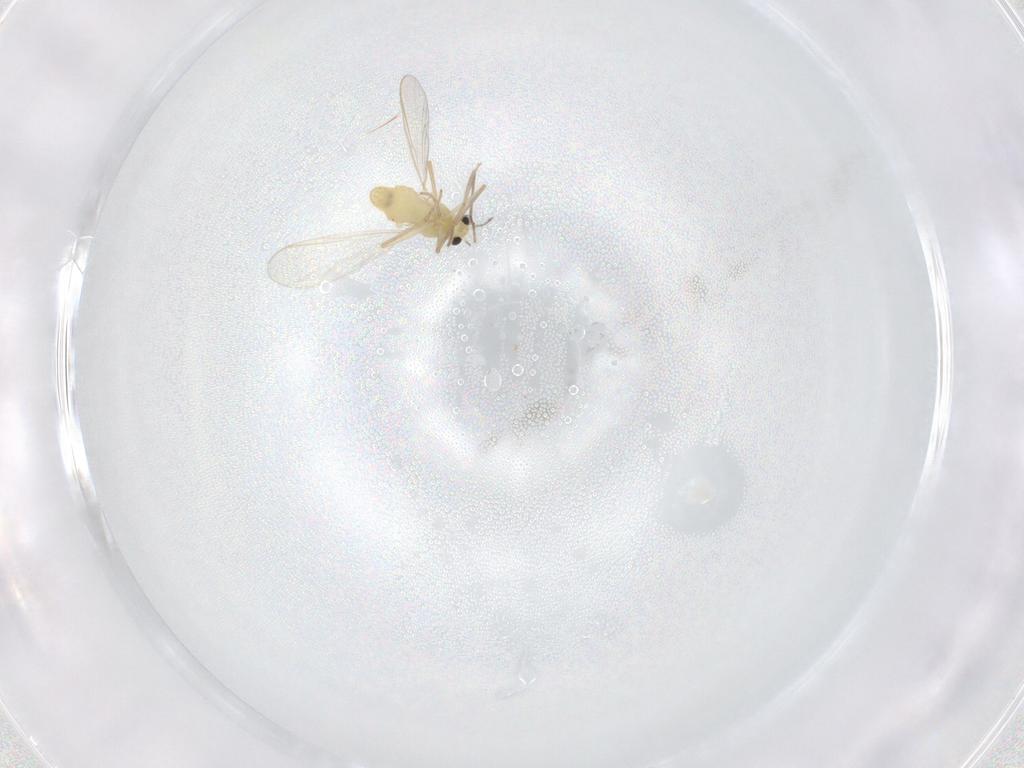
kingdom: Animalia
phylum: Arthropoda
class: Insecta
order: Diptera
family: Chironomidae
